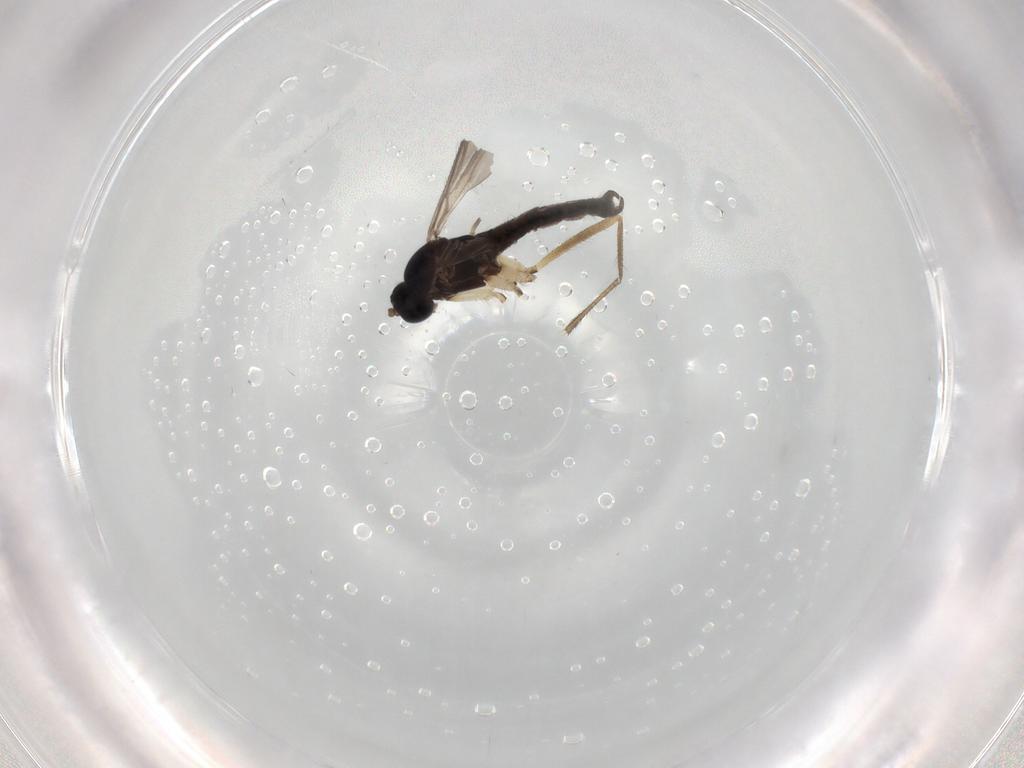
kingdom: Animalia
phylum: Arthropoda
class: Insecta
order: Diptera
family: Sciaridae
